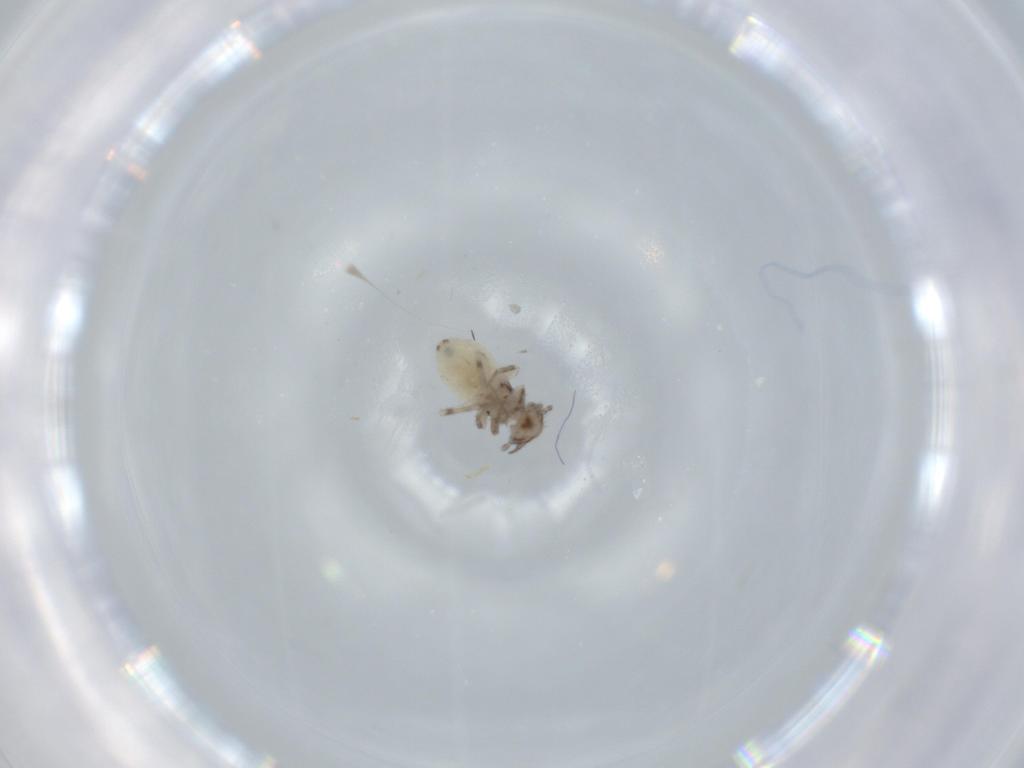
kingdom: Animalia
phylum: Arthropoda
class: Insecta
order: Psocodea
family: Lepidopsocidae
